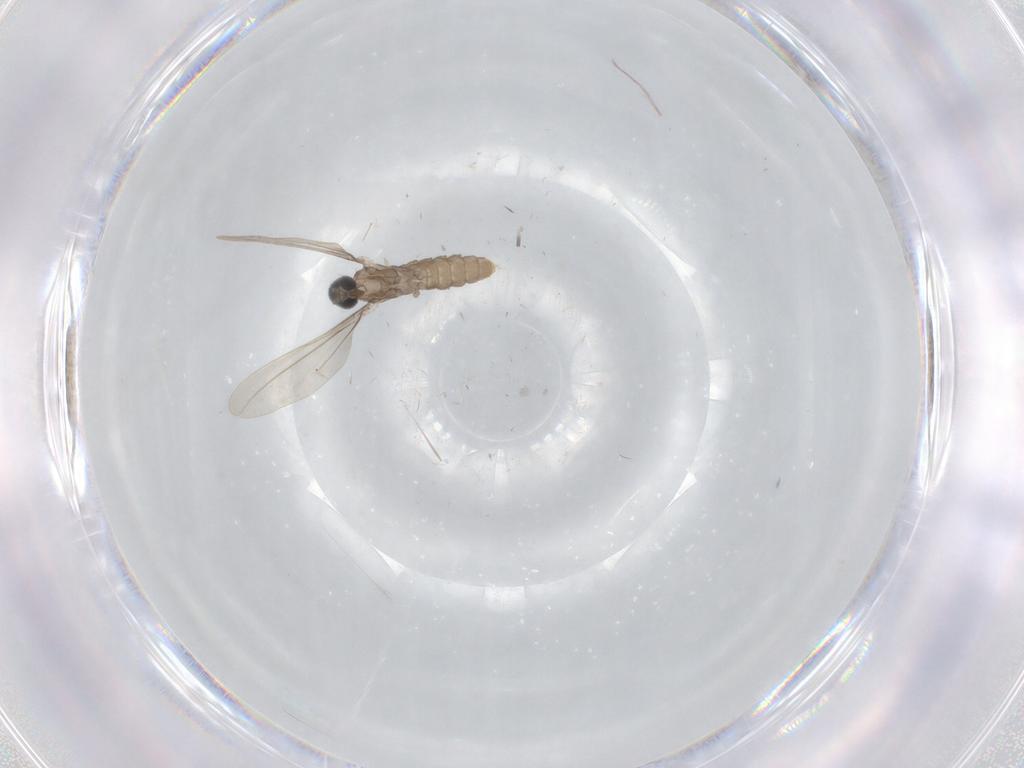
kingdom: Animalia
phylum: Arthropoda
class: Insecta
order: Diptera
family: Cecidomyiidae
